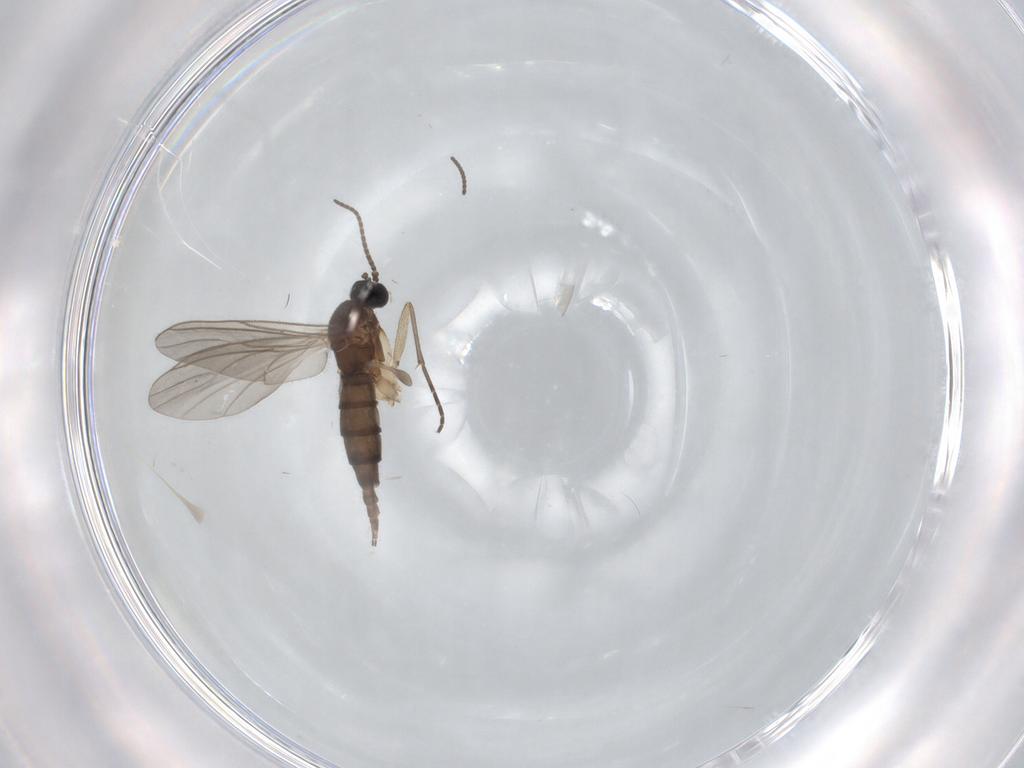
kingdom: Animalia
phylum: Arthropoda
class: Insecta
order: Diptera
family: Sciaridae
